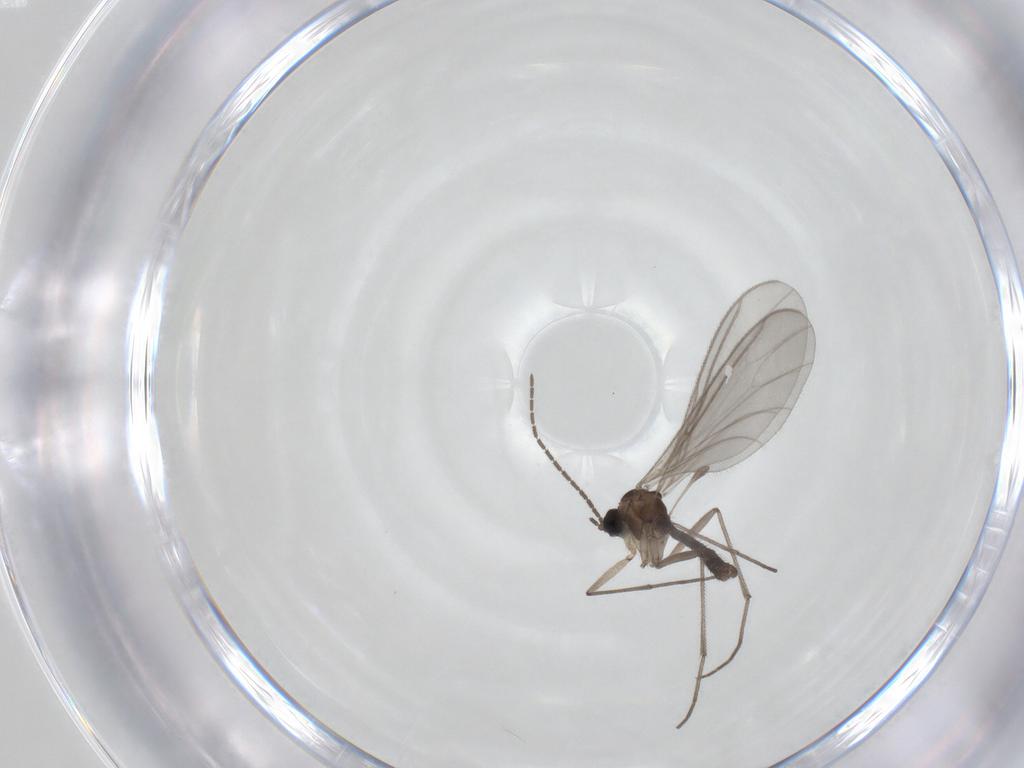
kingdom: Animalia
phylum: Arthropoda
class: Insecta
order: Diptera
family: Sciaridae
